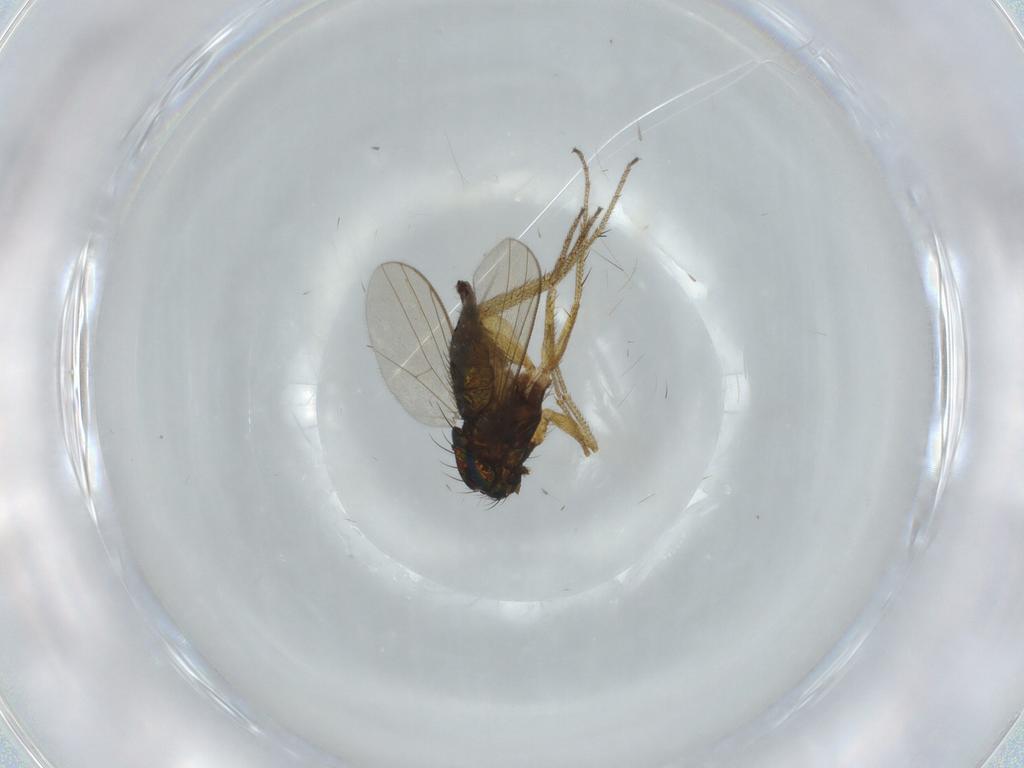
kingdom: Animalia
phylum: Arthropoda
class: Insecta
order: Diptera
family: Dolichopodidae
